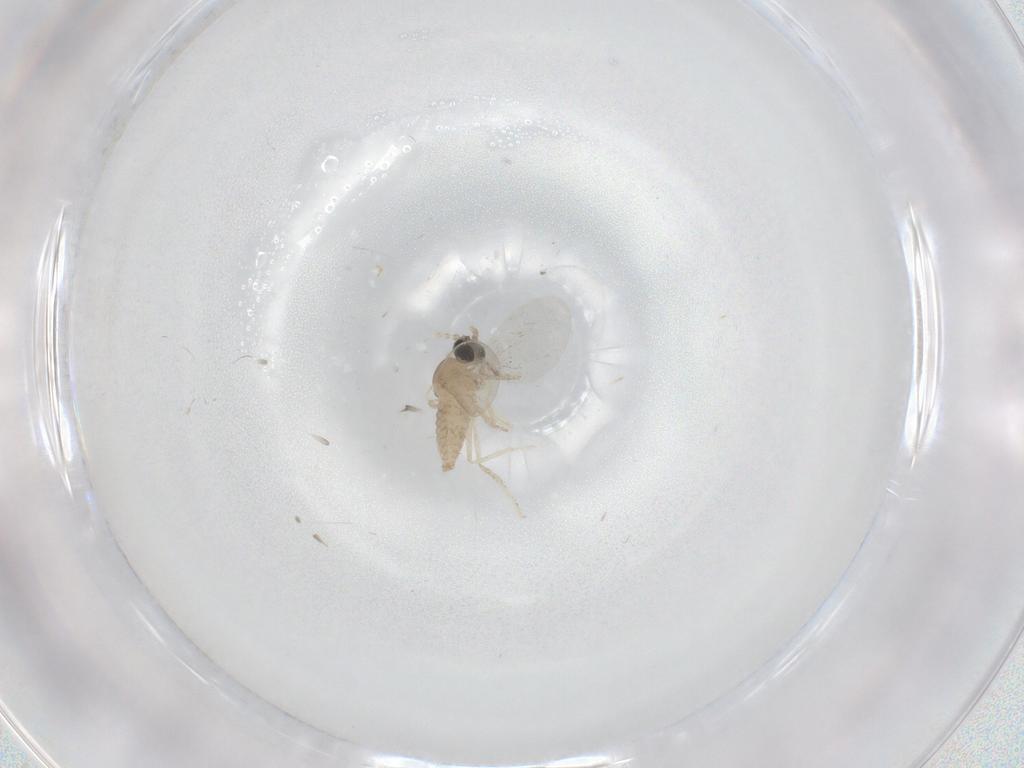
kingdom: Animalia
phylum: Arthropoda
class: Insecta
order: Diptera
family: Cecidomyiidae
